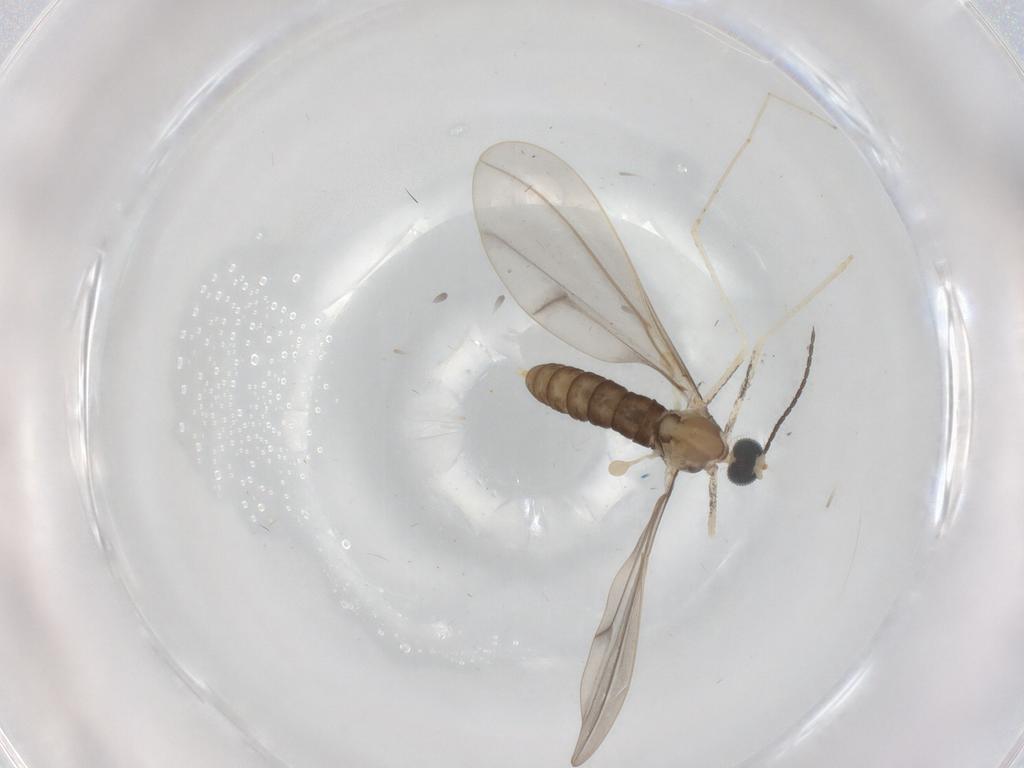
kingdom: Animalia
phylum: Arthropoda
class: Insecta
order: Diptera
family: Cecidomyiidae
